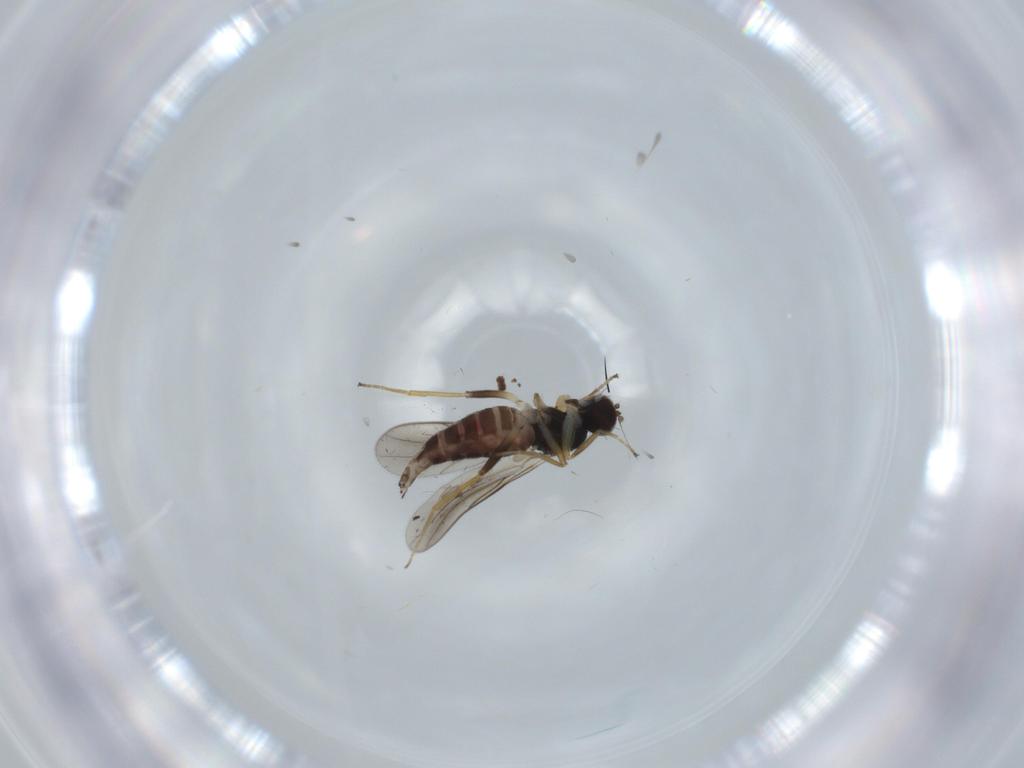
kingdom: Animalia
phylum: Arthropoda
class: Insecta
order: Diptera
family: Hybotidae
